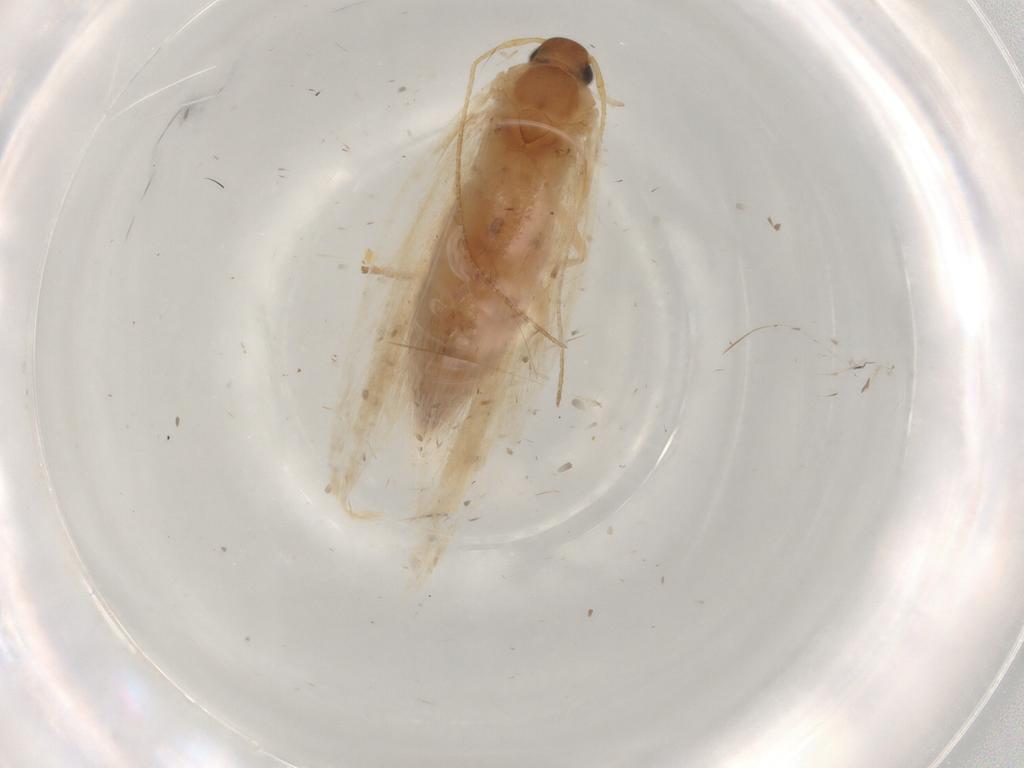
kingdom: Animalia
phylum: Arthropoda
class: Insecta
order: Lepidoptera
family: Gelechiidae
